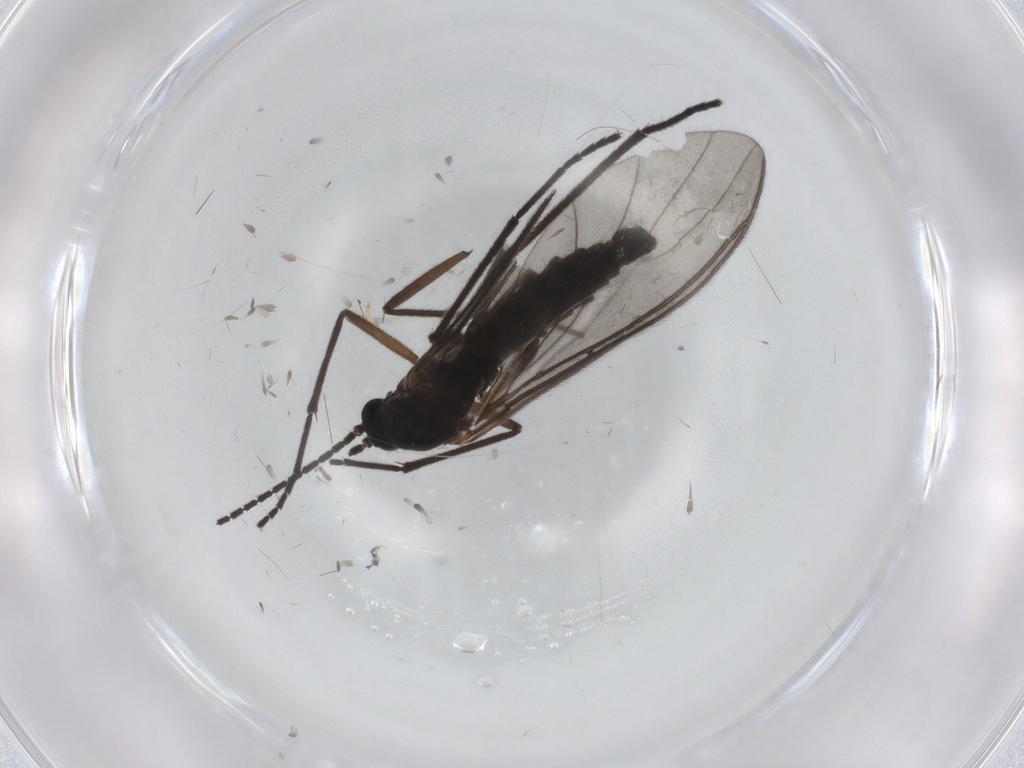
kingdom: Animalia
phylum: Arthropoda
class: Insecta
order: Diptera
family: Sciaridae
